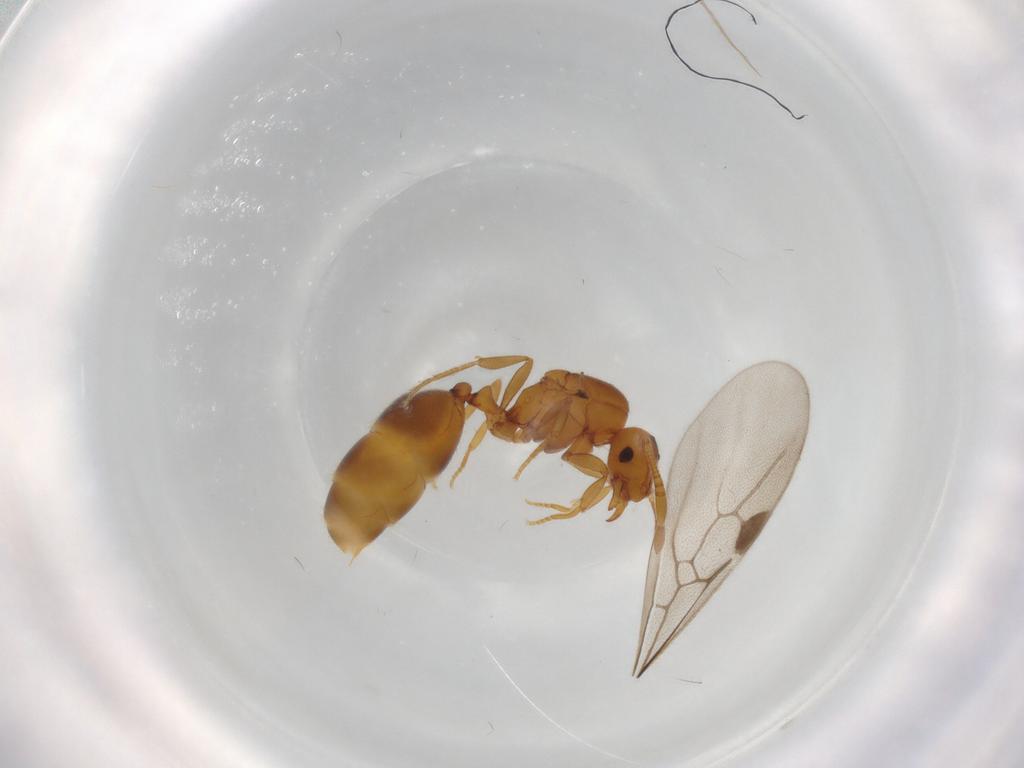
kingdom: Animalia
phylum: Arthropoda
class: Insecta
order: Hymenoptera
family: Formicidae
